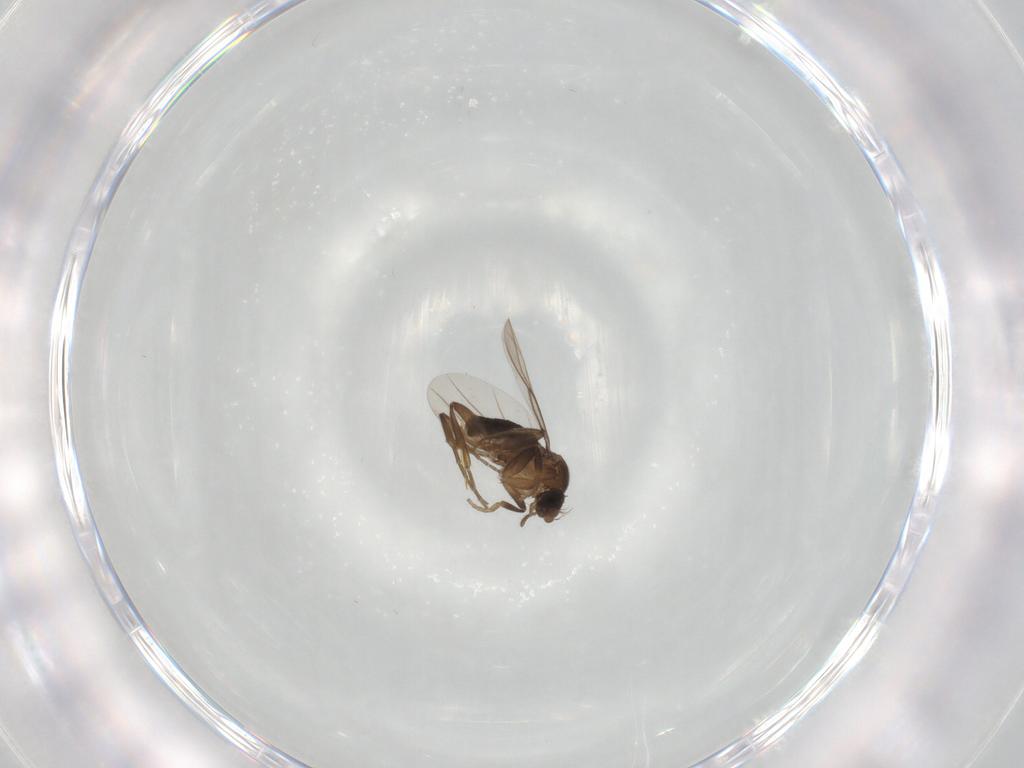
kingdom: Animalia
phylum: Arthropoda
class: Insecta
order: Diptera
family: Phoridae
